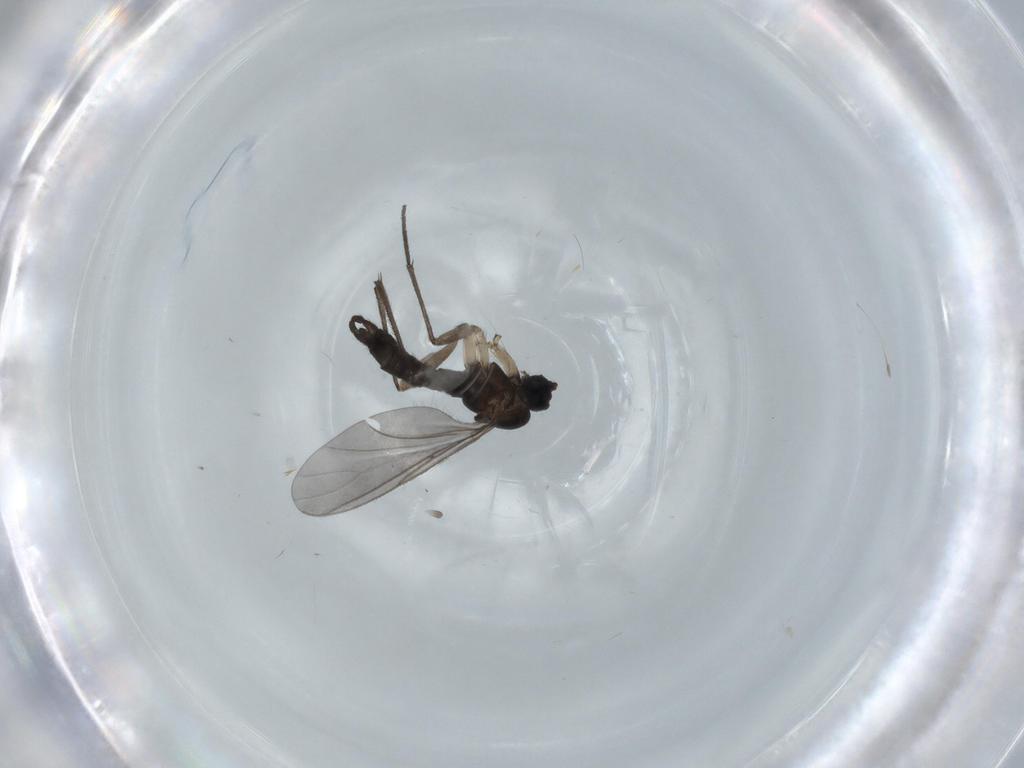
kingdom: Animalia
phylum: Arthropoda
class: Insecta
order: Diptera
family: Sciaridae
